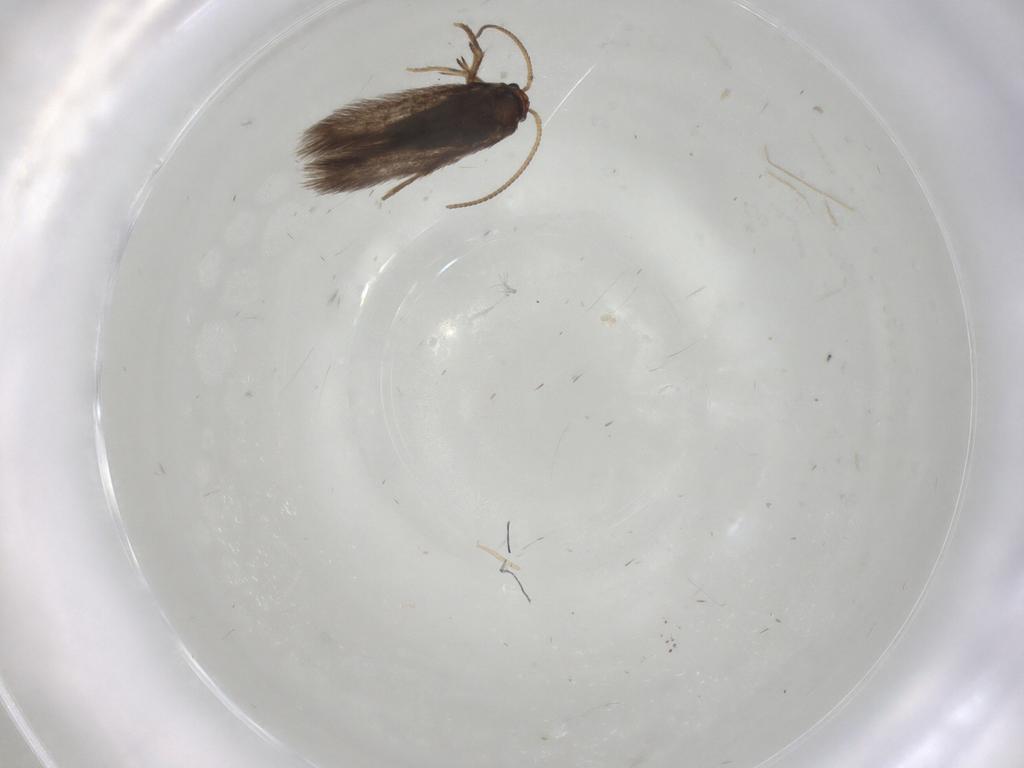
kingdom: Animalia
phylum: Arthropoda
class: Insecta
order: Lepidoptera
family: Nepticulidae
